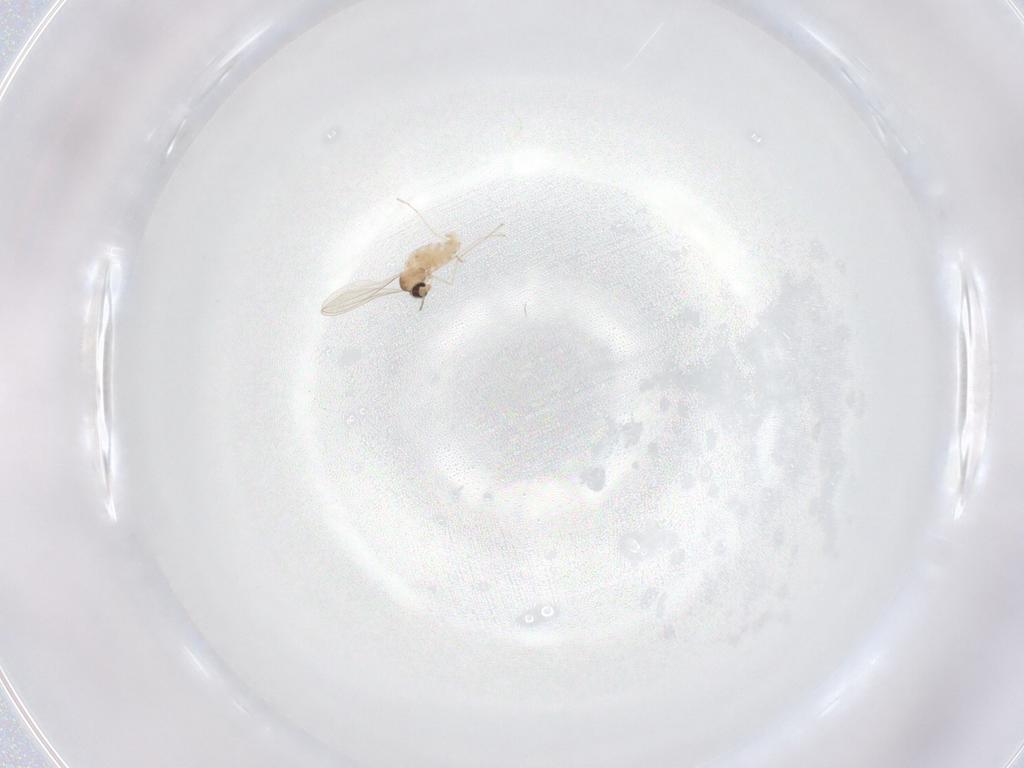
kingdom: Animalia
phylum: Arthropoda
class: Insecta
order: Diptera
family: Cecidomyiidae
